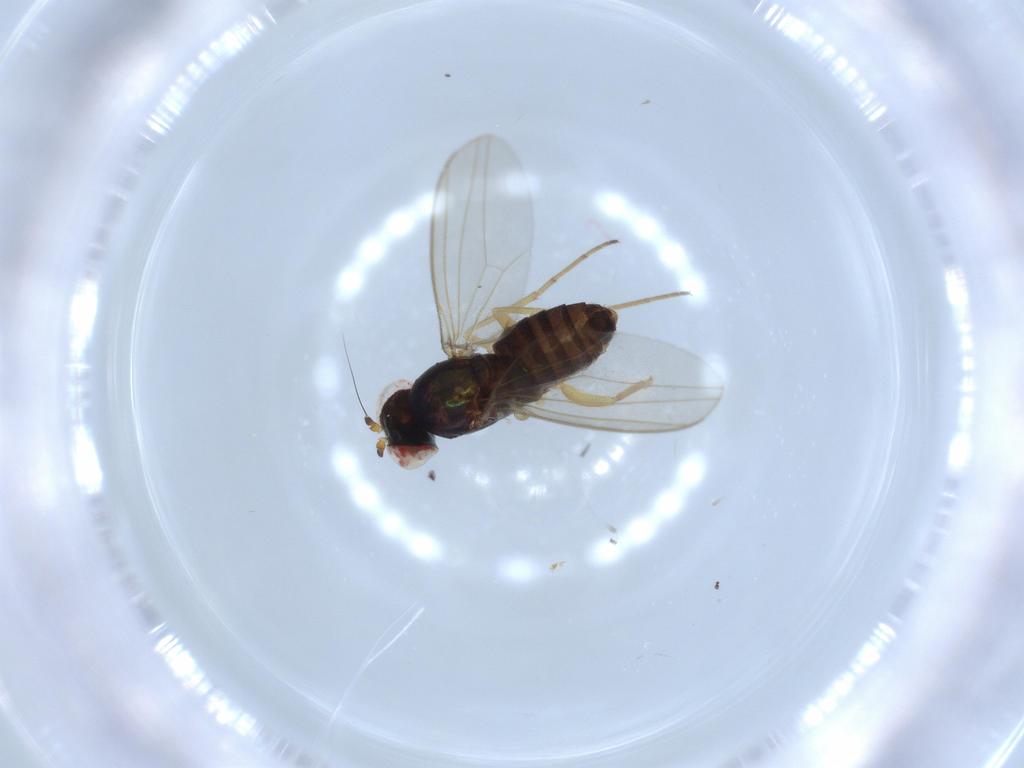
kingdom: Animalia
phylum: Arthropoda
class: Insecta
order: Diptera
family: Dolichopodidae
